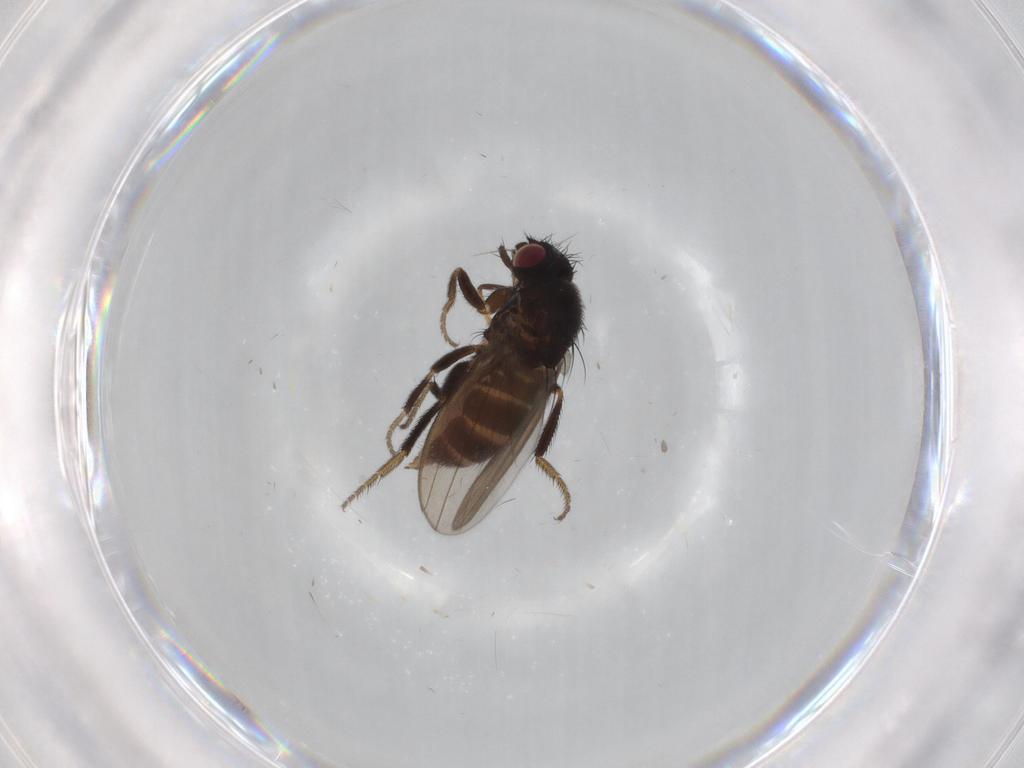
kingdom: Animalia
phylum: Arthropoda
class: Insecta
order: Diptera
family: Milichiidae
